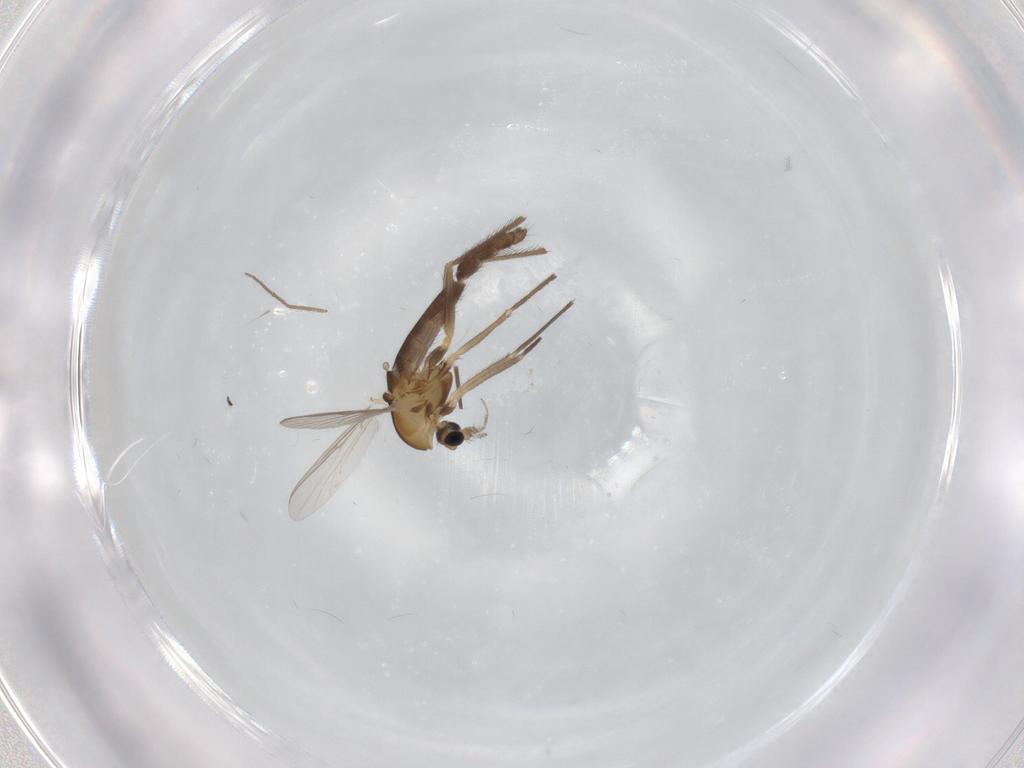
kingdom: Animalia
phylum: Arthropoda
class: Insecta
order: Diptera
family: Chironomidae
